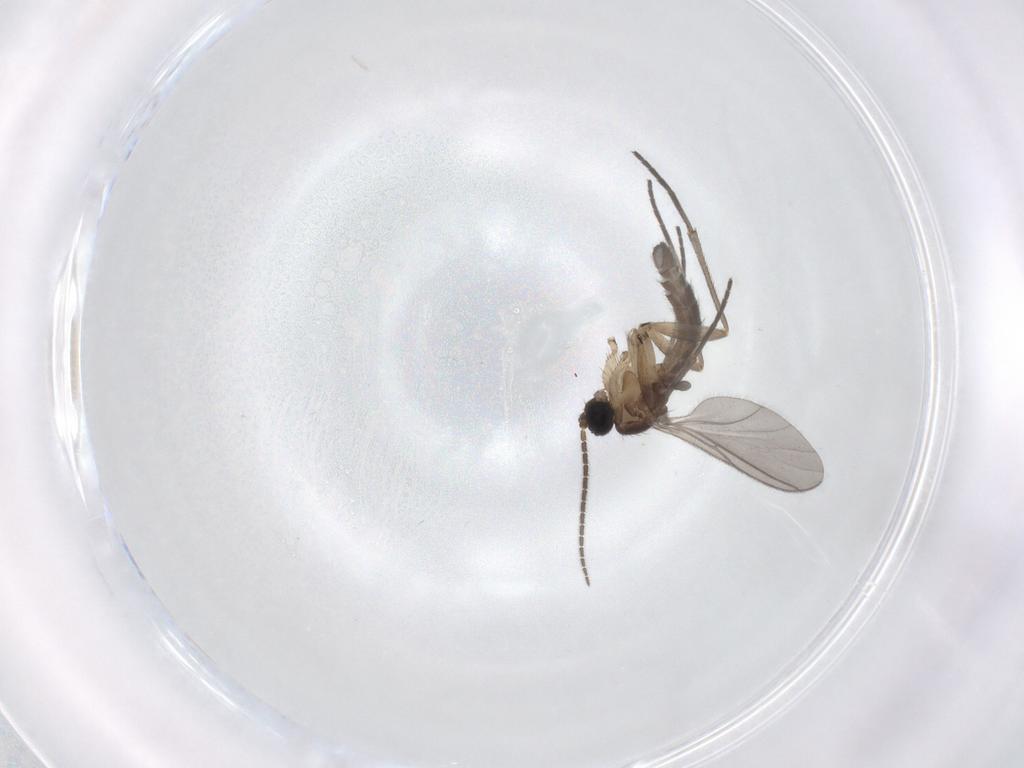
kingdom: Animalia
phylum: Arthropoda
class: Insecta
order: Diptera
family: Sciaridae
